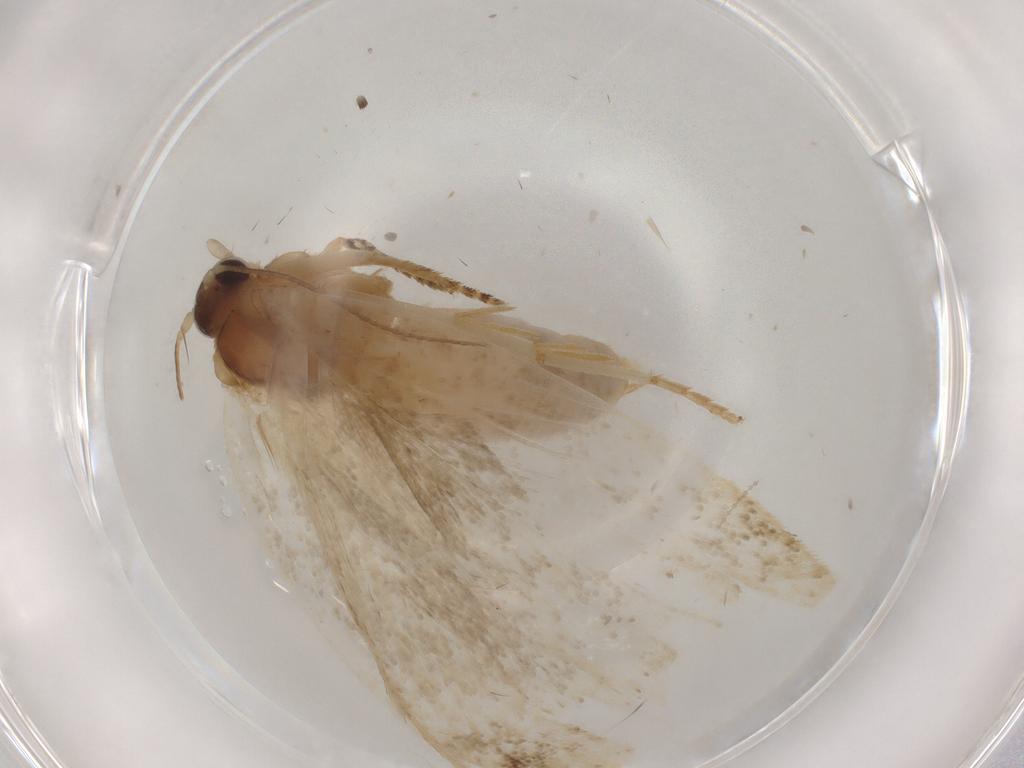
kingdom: Animalia
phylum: Arthropoda
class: Insecta
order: Lepidoptera
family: Tortricidae
